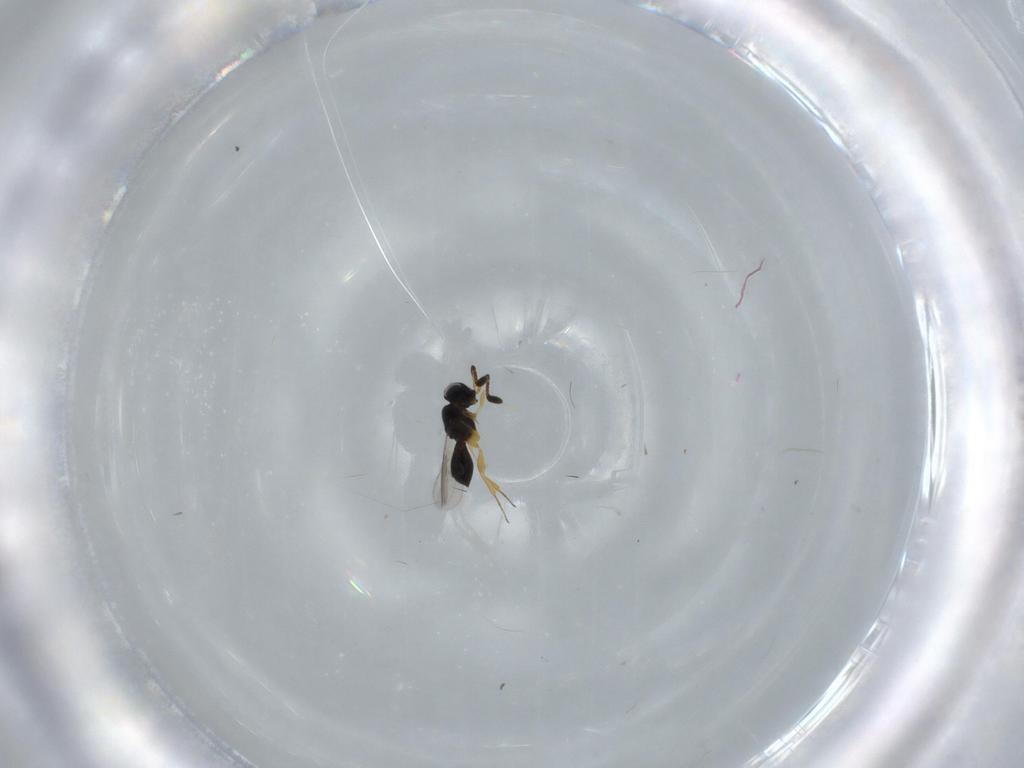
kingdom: Animalia
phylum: Arthropoda
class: Insecta
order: Hymenoptera
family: Scelionidae
